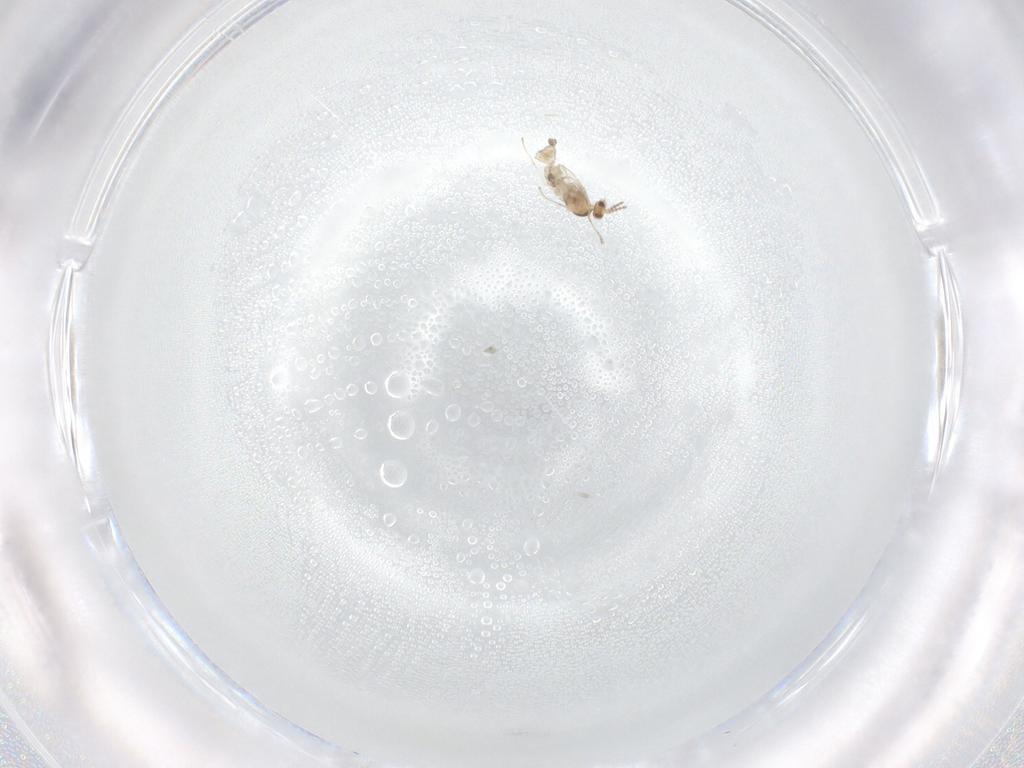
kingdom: Animalia
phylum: Arthropoda
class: Insecta
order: Diptera
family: Cecidomyiidae
